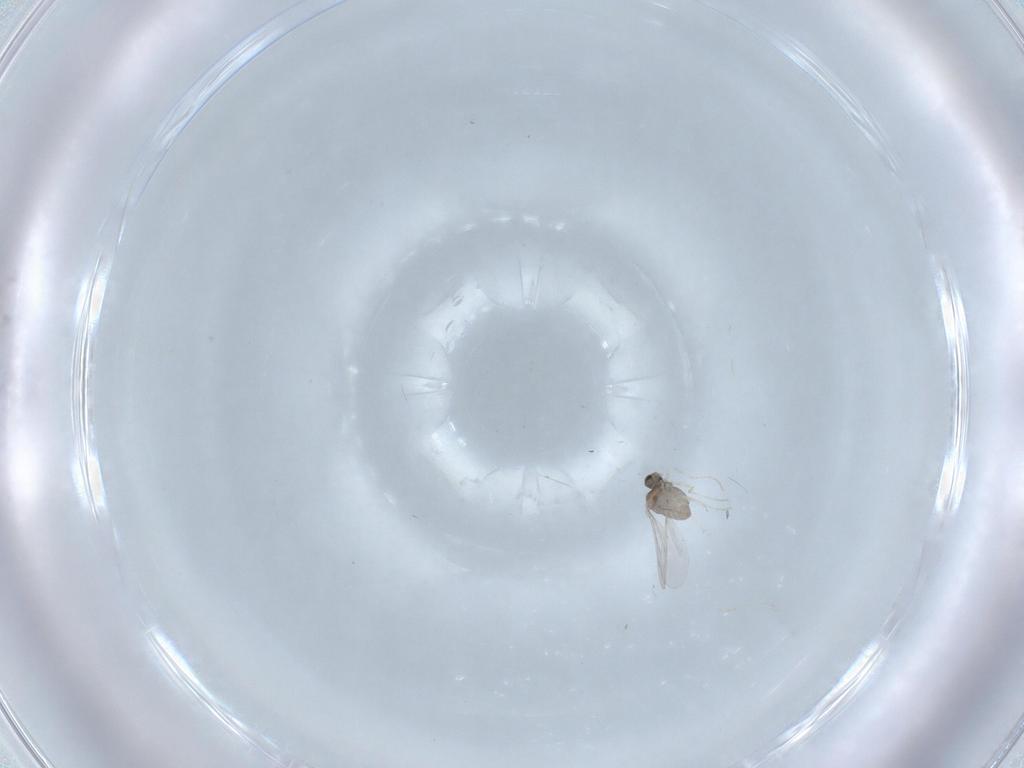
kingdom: Animalia
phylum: Arthropoda
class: Insecta
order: Diptera
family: Cecidomyiidae
